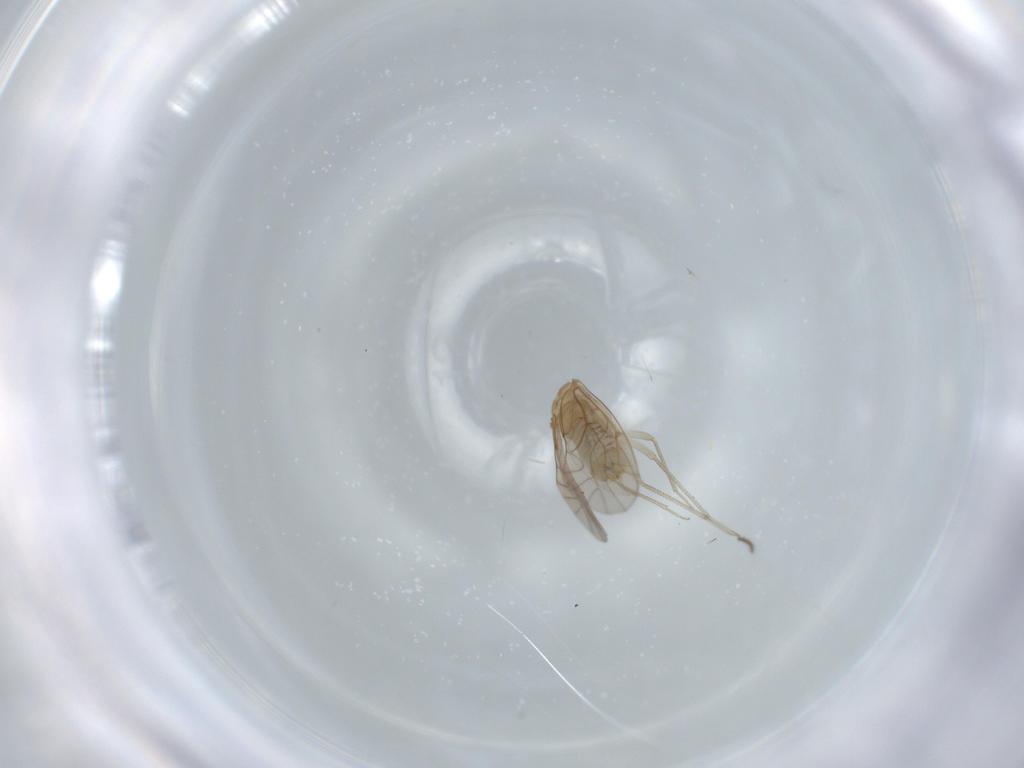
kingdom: Animalia
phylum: Arthropoda
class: Insecta
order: Psocodea
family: Lachesillidae
